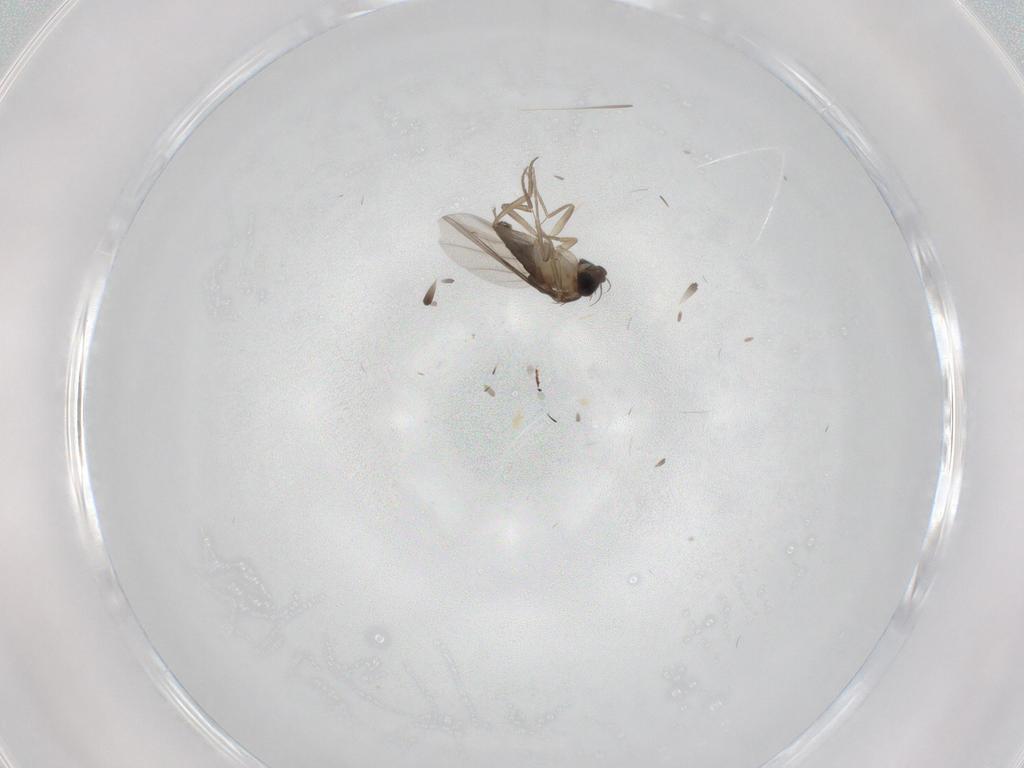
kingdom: Animalia
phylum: Arthropoda
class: Insecta
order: Diptera
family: Phoridae
